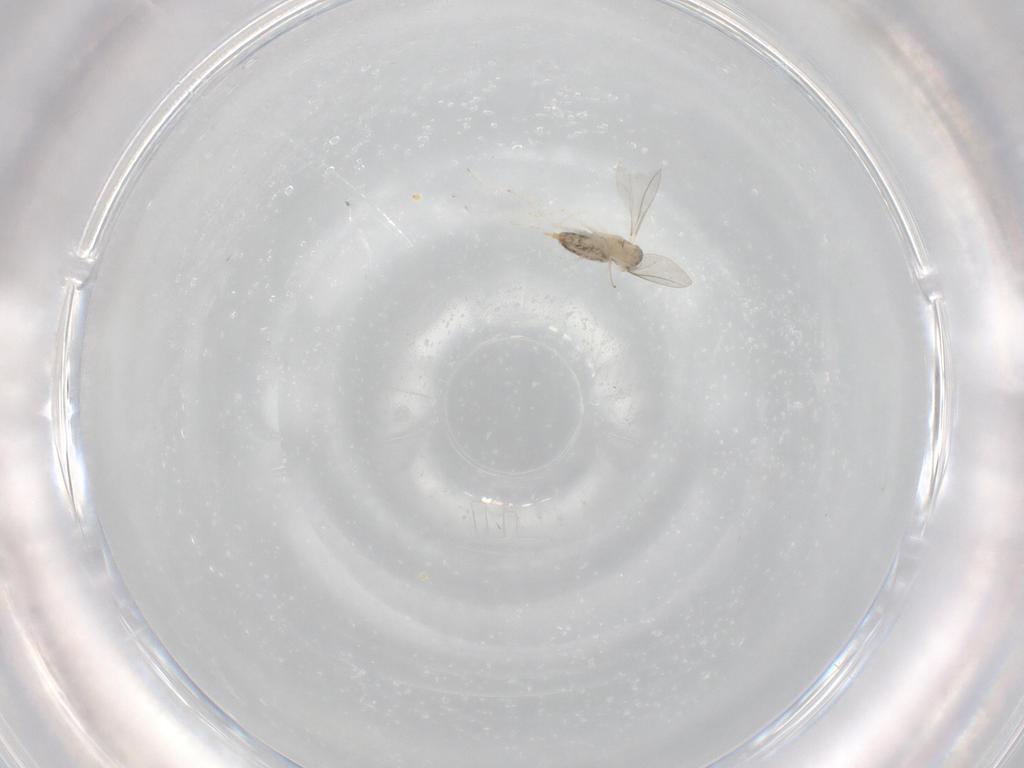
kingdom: Animalia
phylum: Arthropoda
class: Insecta
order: Diptera
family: Cecidomyiidae
